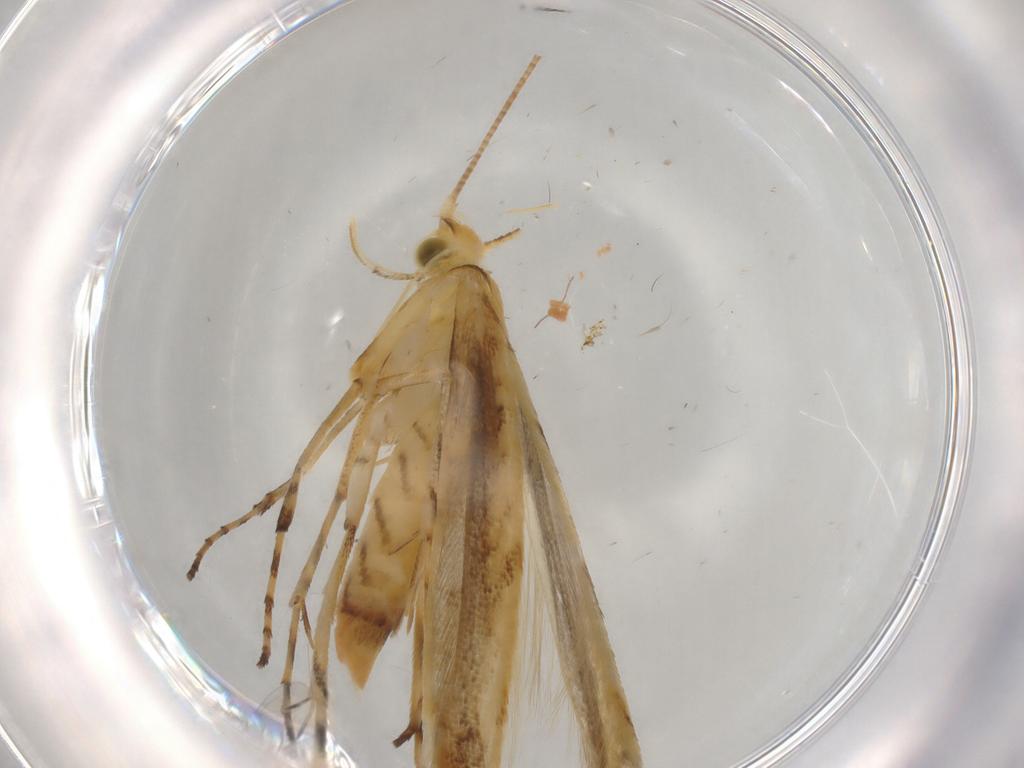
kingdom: Animalia
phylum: Arthropoda
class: Insecta
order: Lepidoptera
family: Gracillariidae
